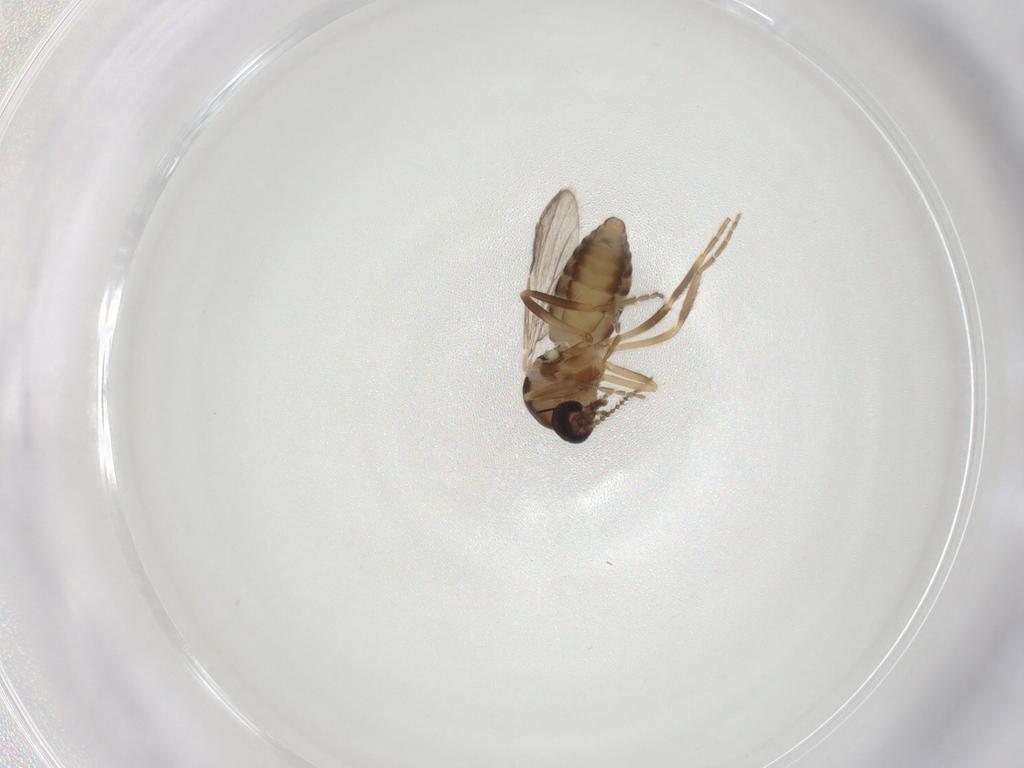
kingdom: Animalia
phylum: Arthropoda
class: Insecta
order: Diptera
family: Ceratopogonidae
